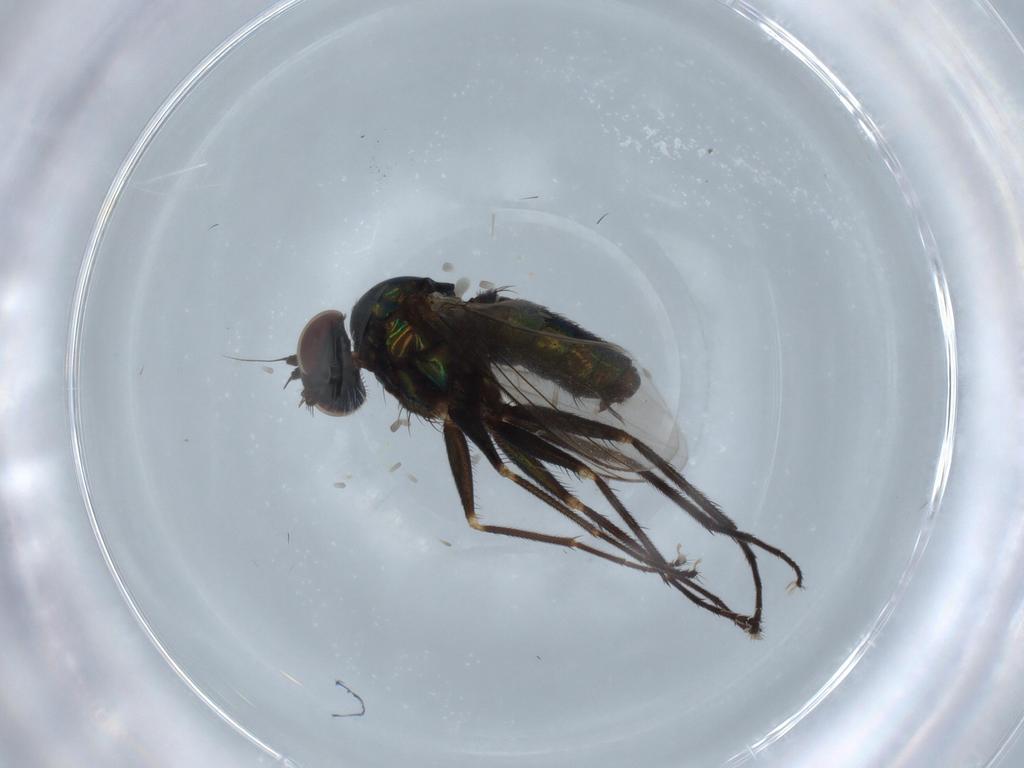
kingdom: Animalia
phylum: Arthropoda
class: Insecta
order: Diptera
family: Dolichopodidae
